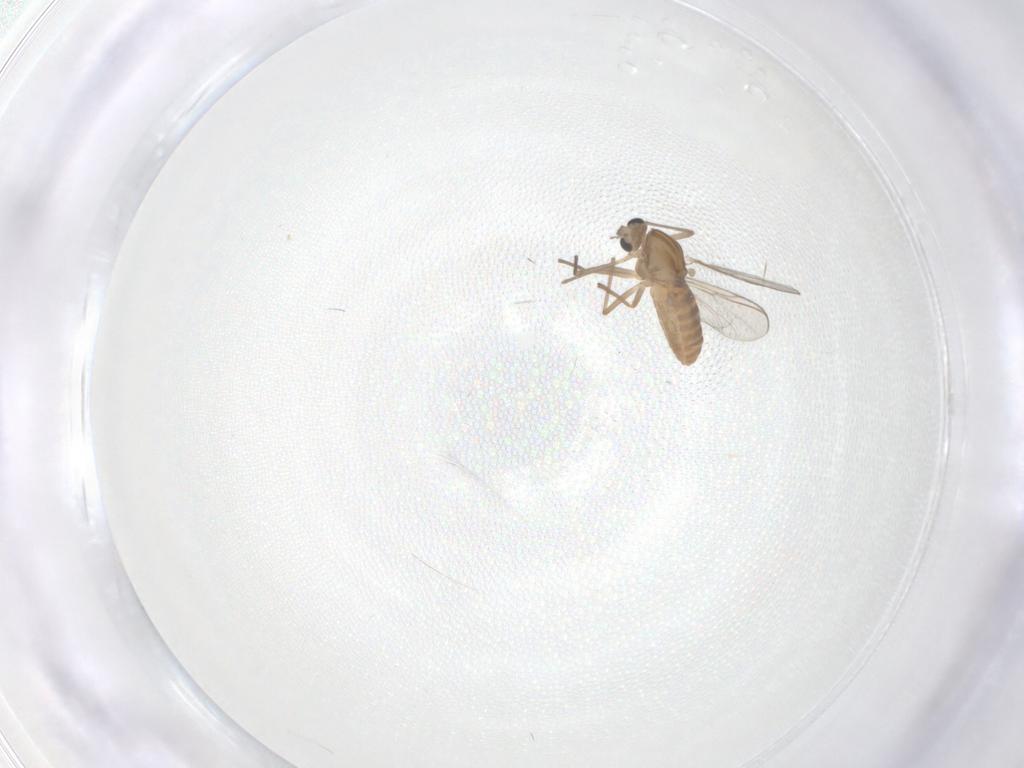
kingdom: Animalia
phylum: Arthropoda
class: Insecta
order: Diptera
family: Chironomidae
